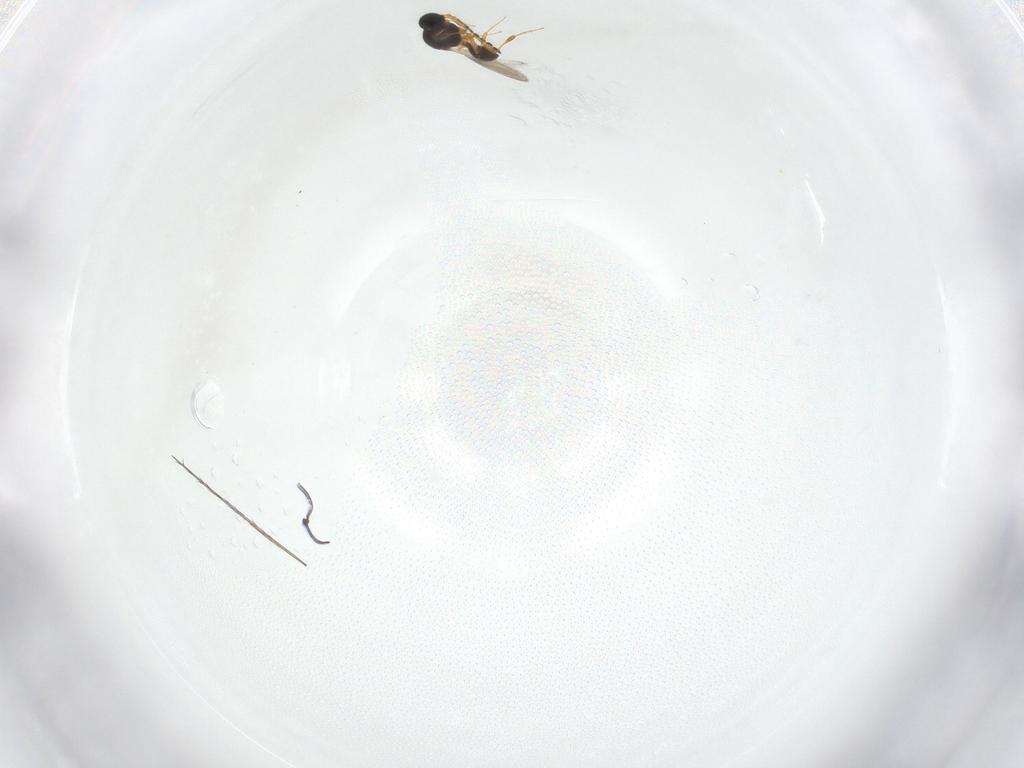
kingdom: Animalia
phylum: Arthropoda
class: Insecta
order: Hymenoptera
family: Platygastridae
